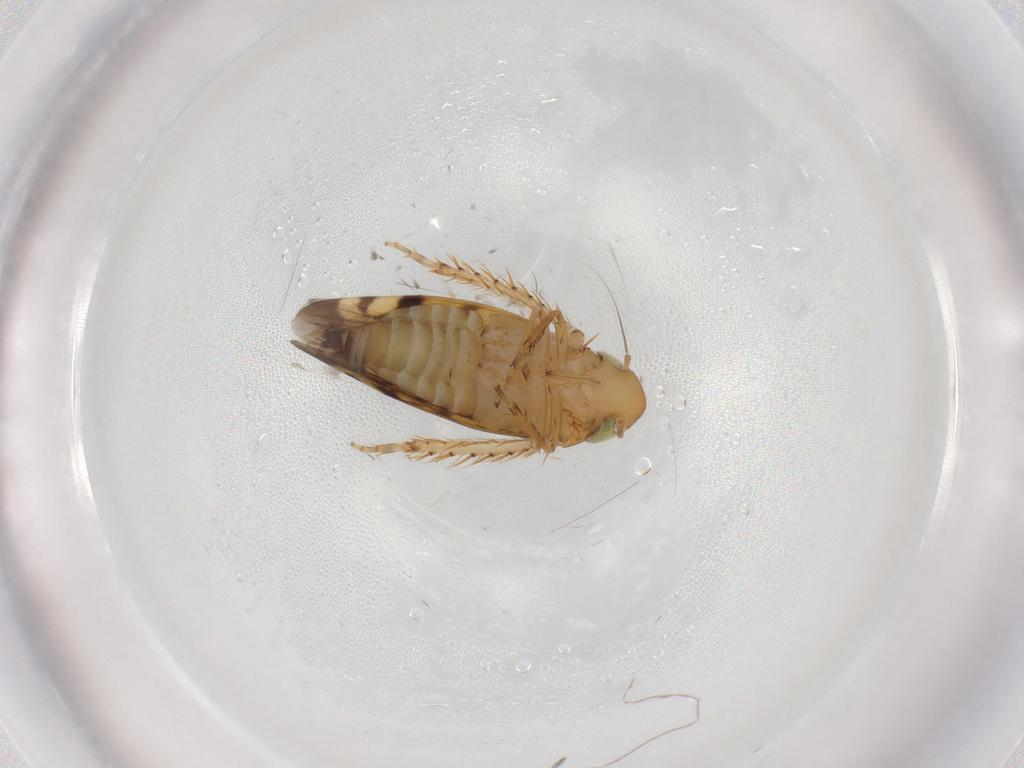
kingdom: Animalia
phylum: Arthropoda
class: Insecta
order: Hemiptera
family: Cicadellidae
